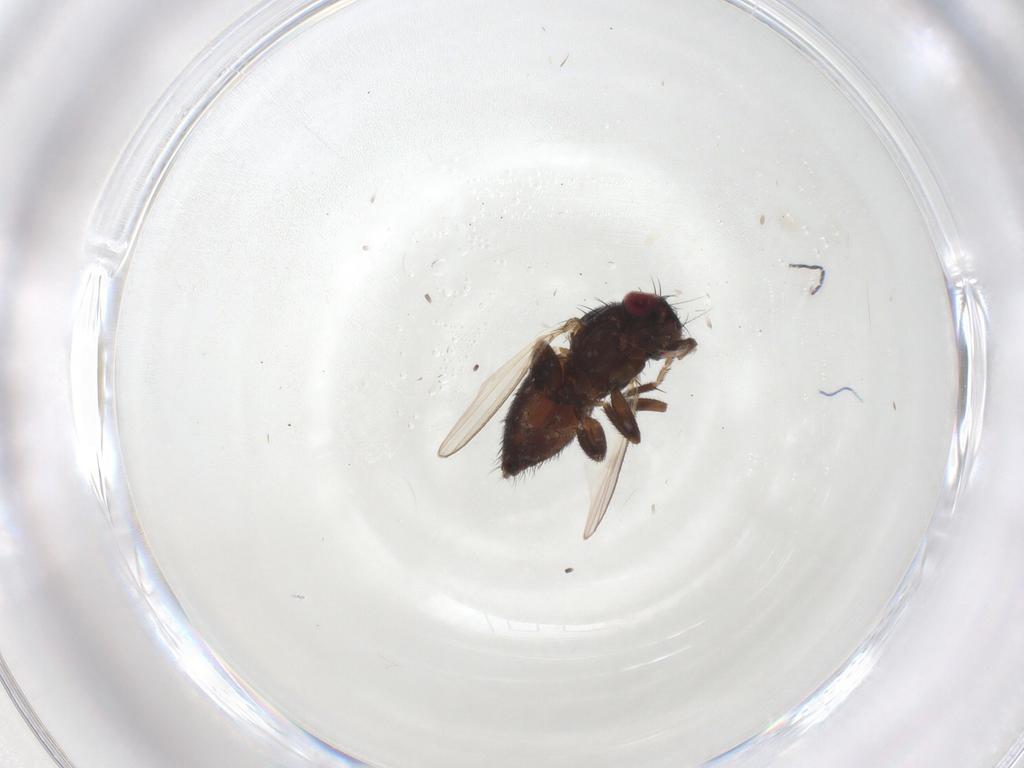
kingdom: Animalia
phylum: Arthropoda
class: Insecta
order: Diptera
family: Milichiidae
